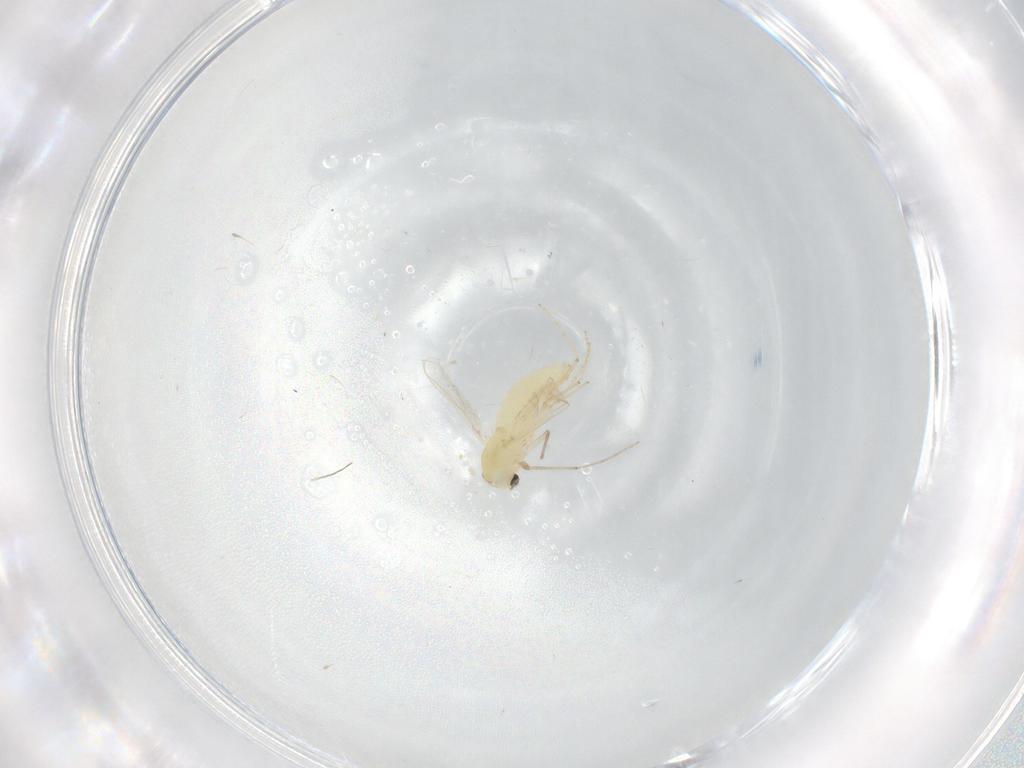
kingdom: Animalia
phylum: Arthropoda
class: Insecta
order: Diptera
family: Chironomidae
